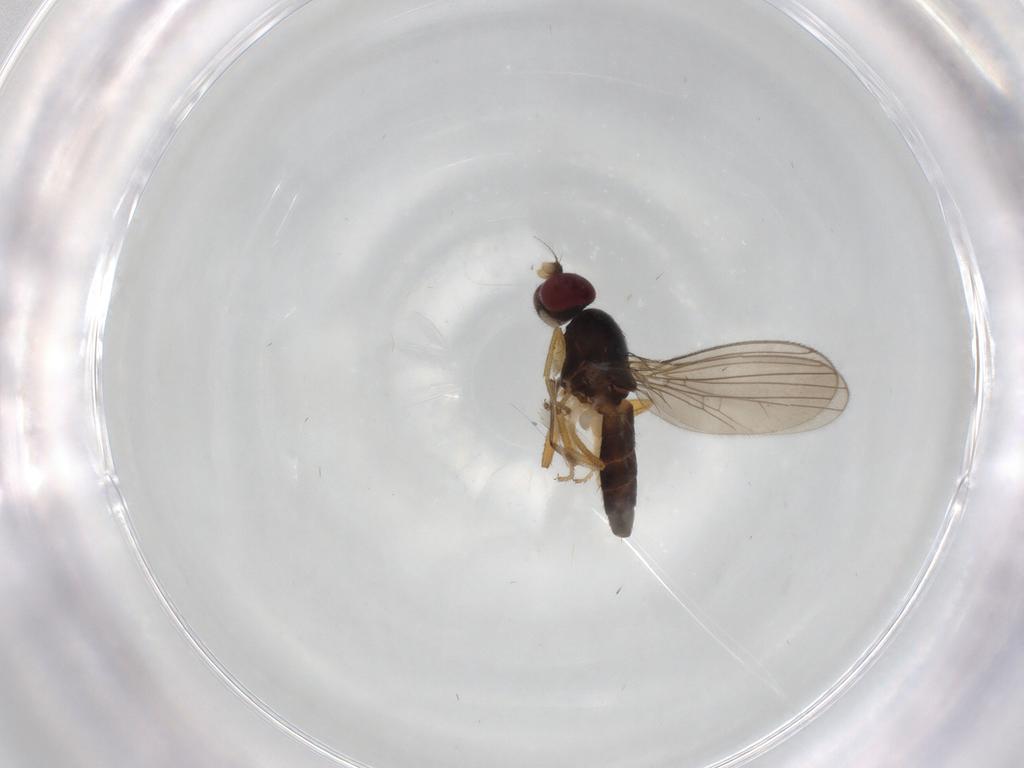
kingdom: Animalia
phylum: Arthropoda
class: Insecta
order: Diptera
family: Anthomyzidae
